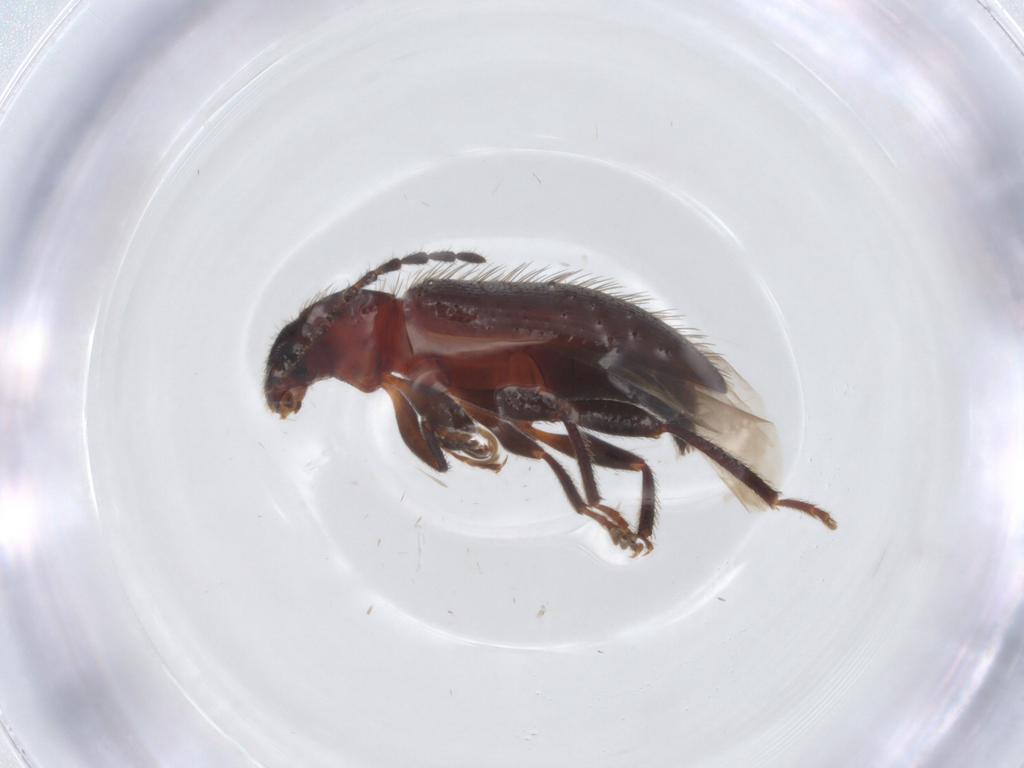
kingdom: Animalia
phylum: Arthropoda
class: Insecta
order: Coleoptera
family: Tenebrionidae
